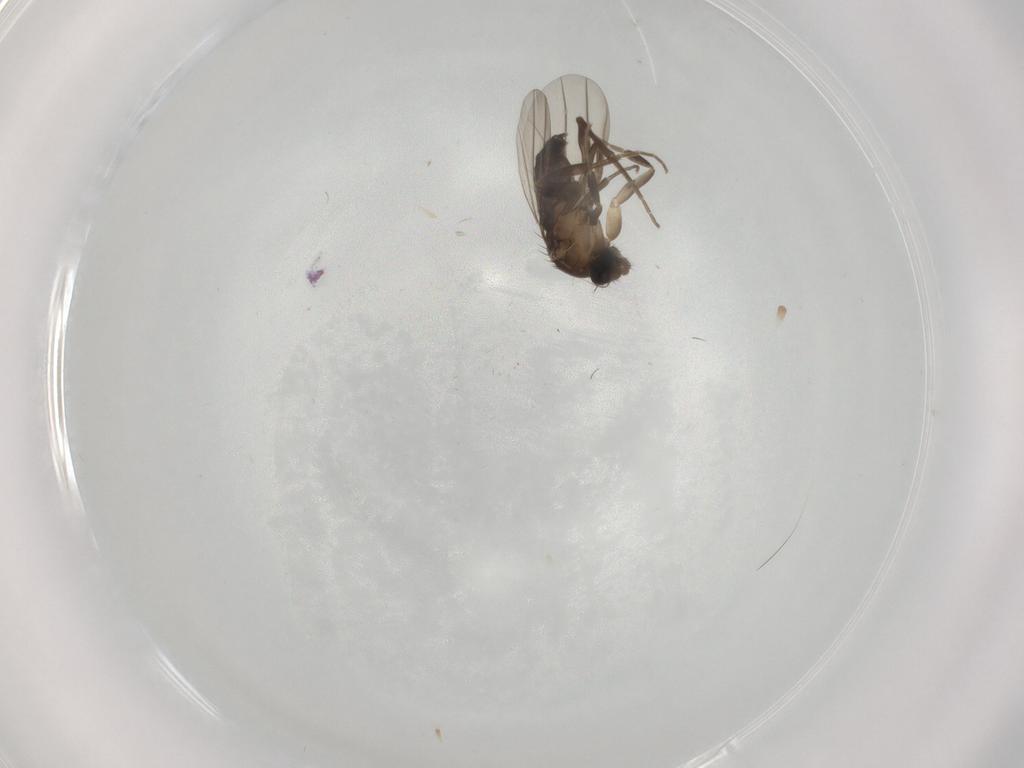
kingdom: Animalia
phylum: Arthropoda
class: Insecta
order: Diptera
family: Phoridae
